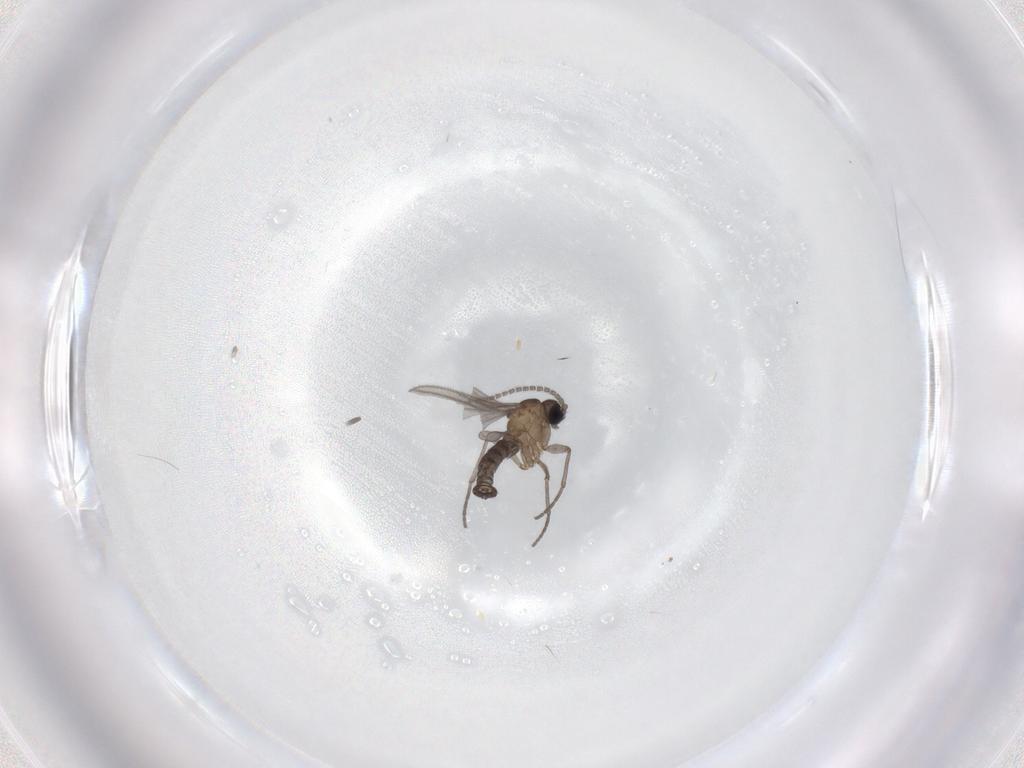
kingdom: Animalia
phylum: Arthropoda
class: Insecta
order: Diptera
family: Sciaridae
